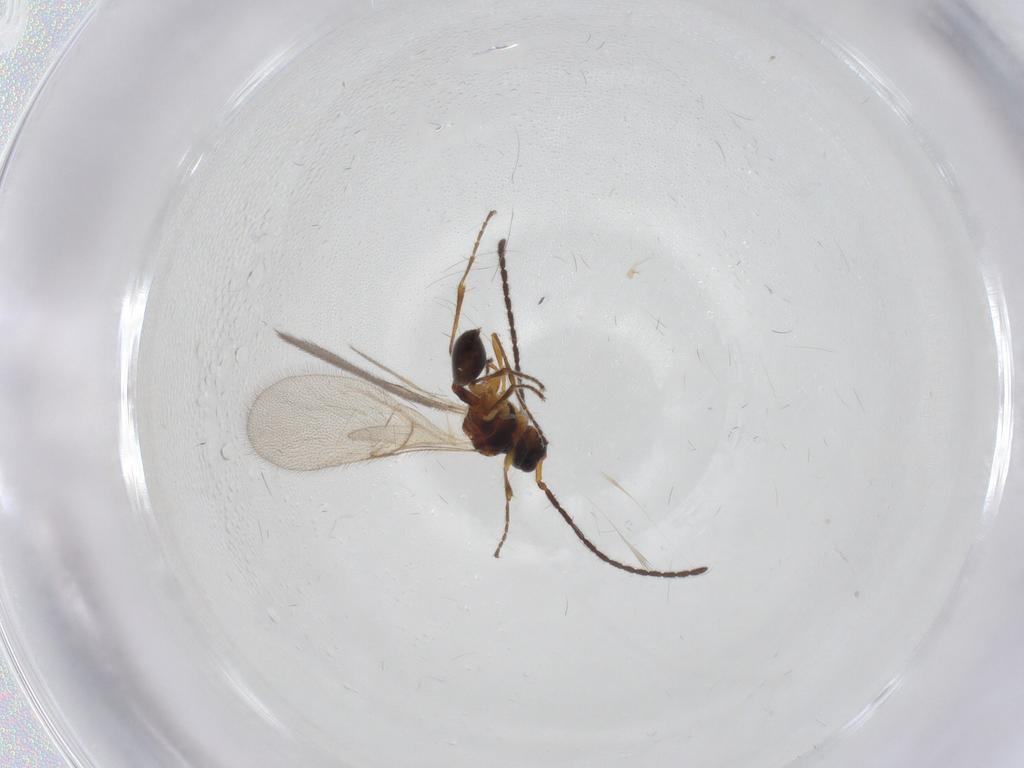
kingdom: Animalia
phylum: Arthropoda
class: Insecta
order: Hymenoptera
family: Diapriidae
